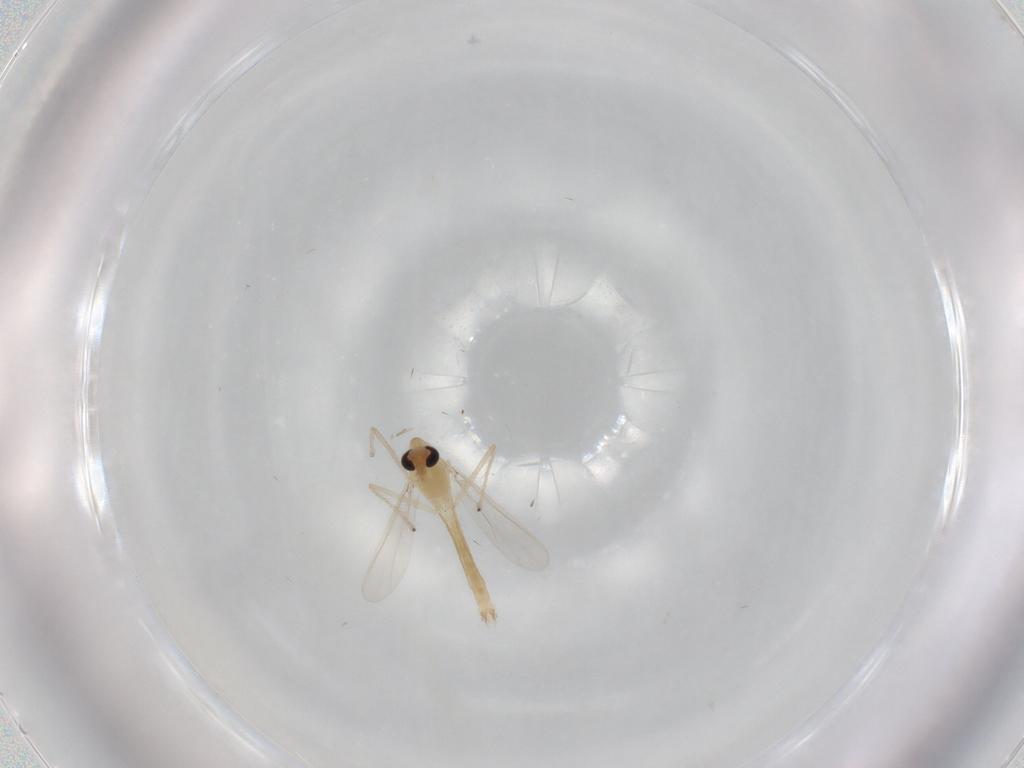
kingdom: Animalia
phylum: Arthropoda
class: Insecta
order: Diptera
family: Chironomidae
